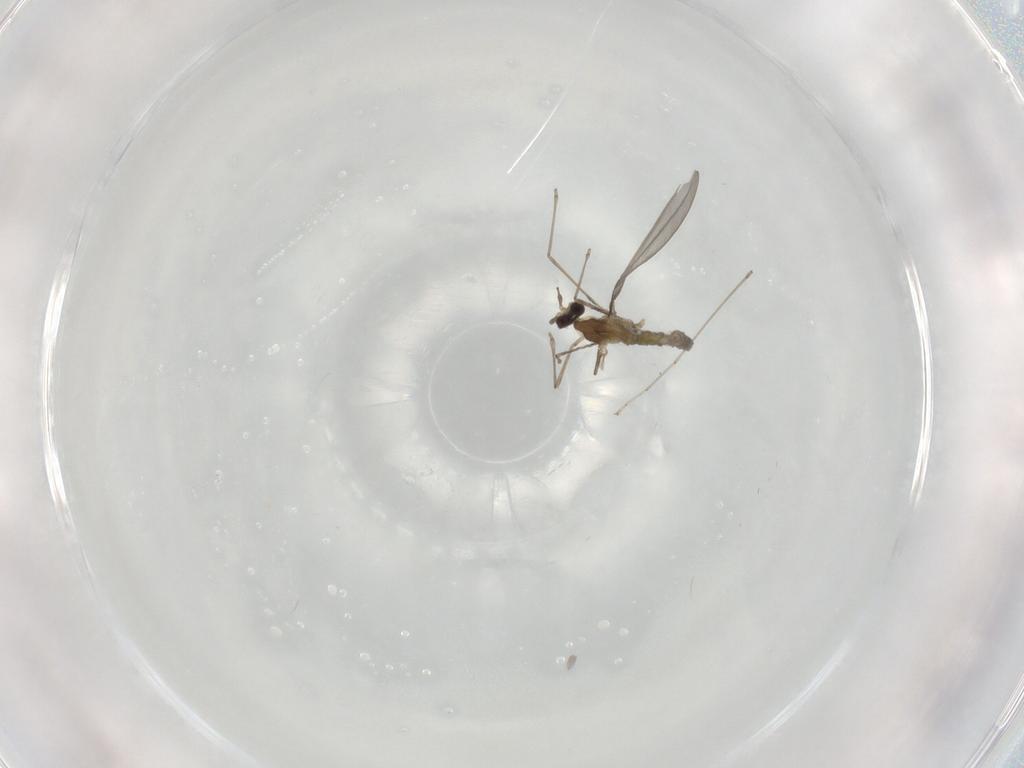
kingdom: Animalia
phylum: Arthropoda
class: Insecta
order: Diptera
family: Cecidomyiidae
